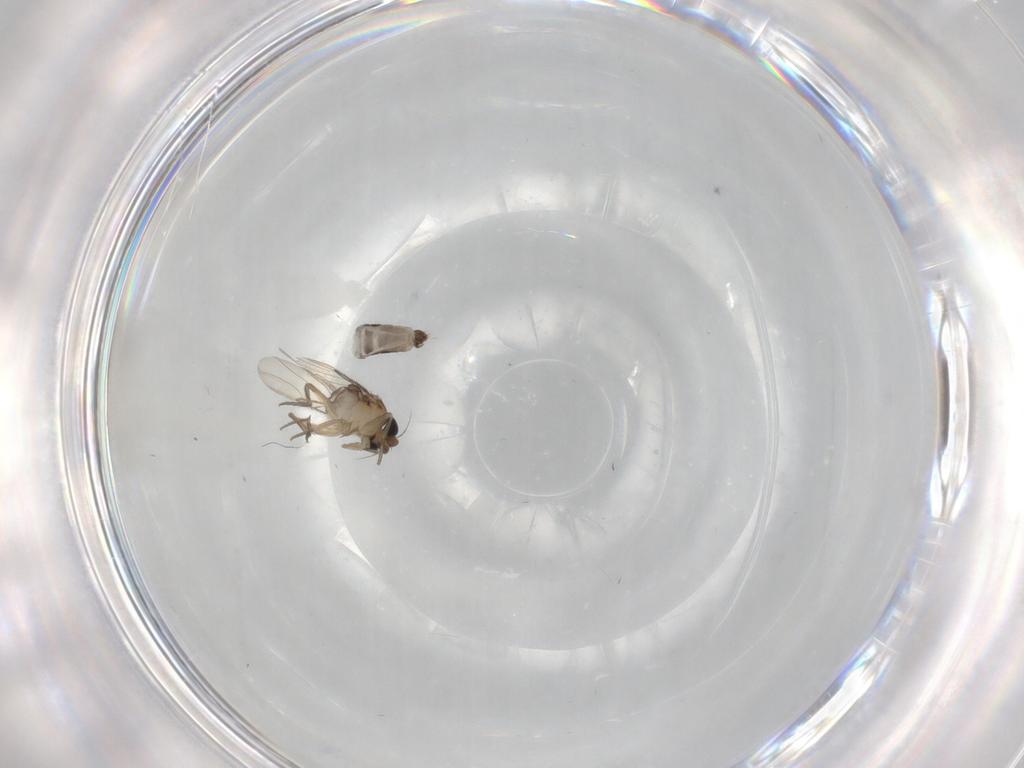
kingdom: Animalia
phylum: Arthropoda
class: Insecta
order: Diptera
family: Phoridae
